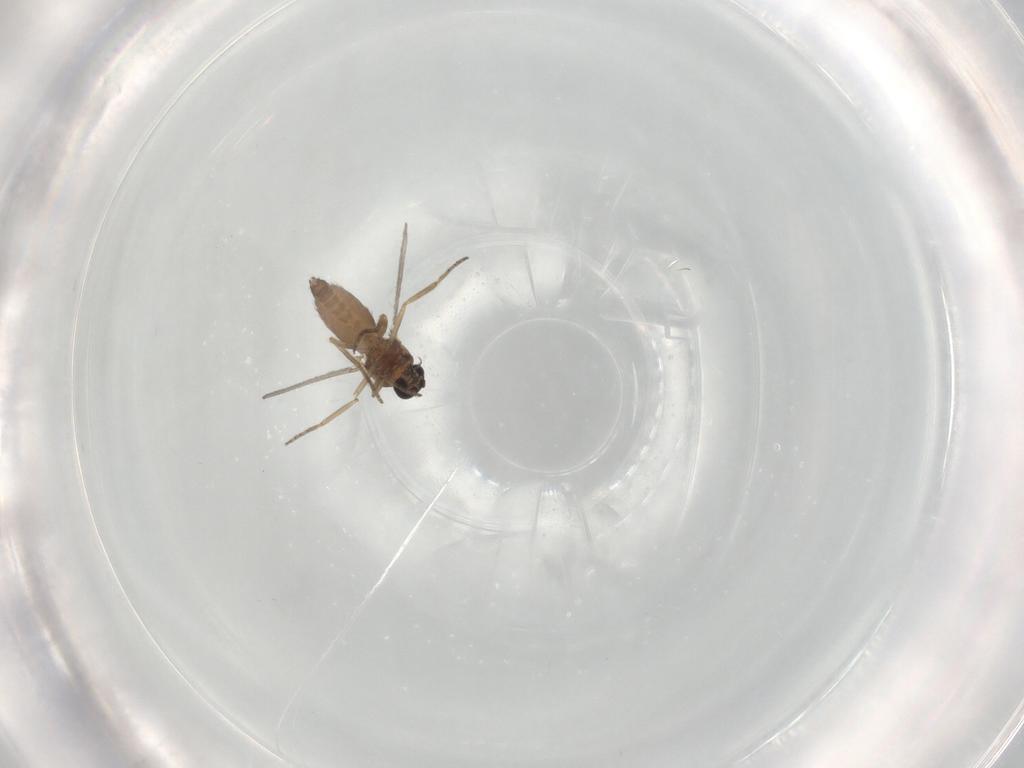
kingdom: Animalia
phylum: Arthropoda
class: Insecta
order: Diptera
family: Ceratopogonidae
